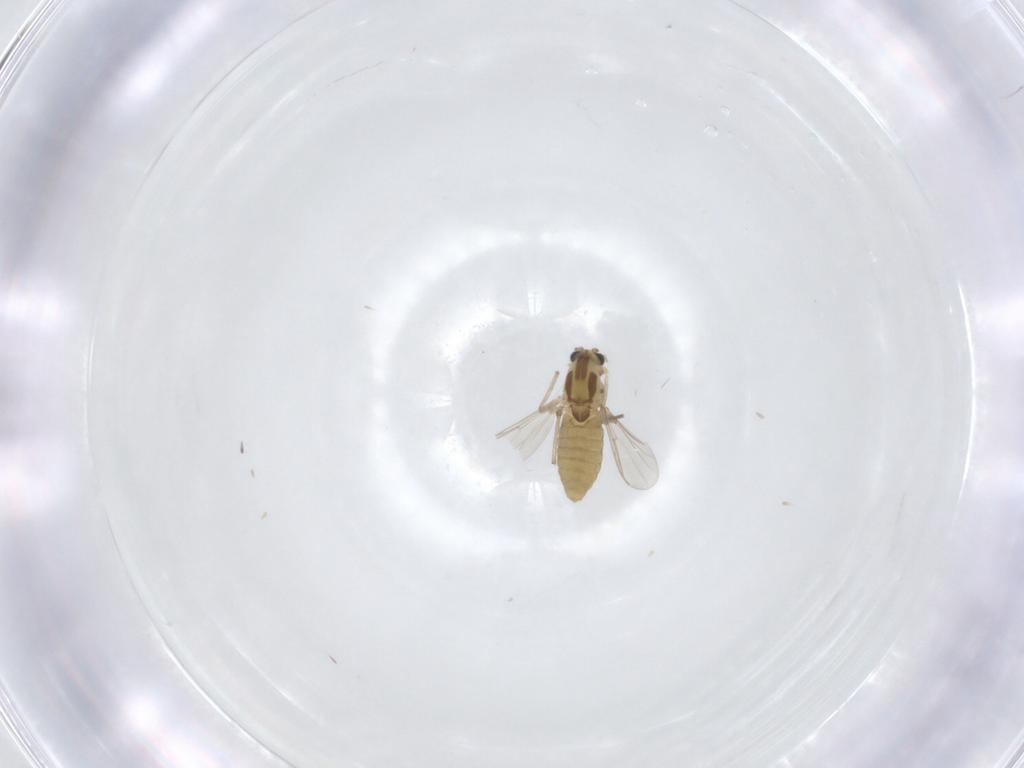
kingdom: Animalia
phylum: Arthropoda
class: Insecta
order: Diptera
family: Chironomidae
